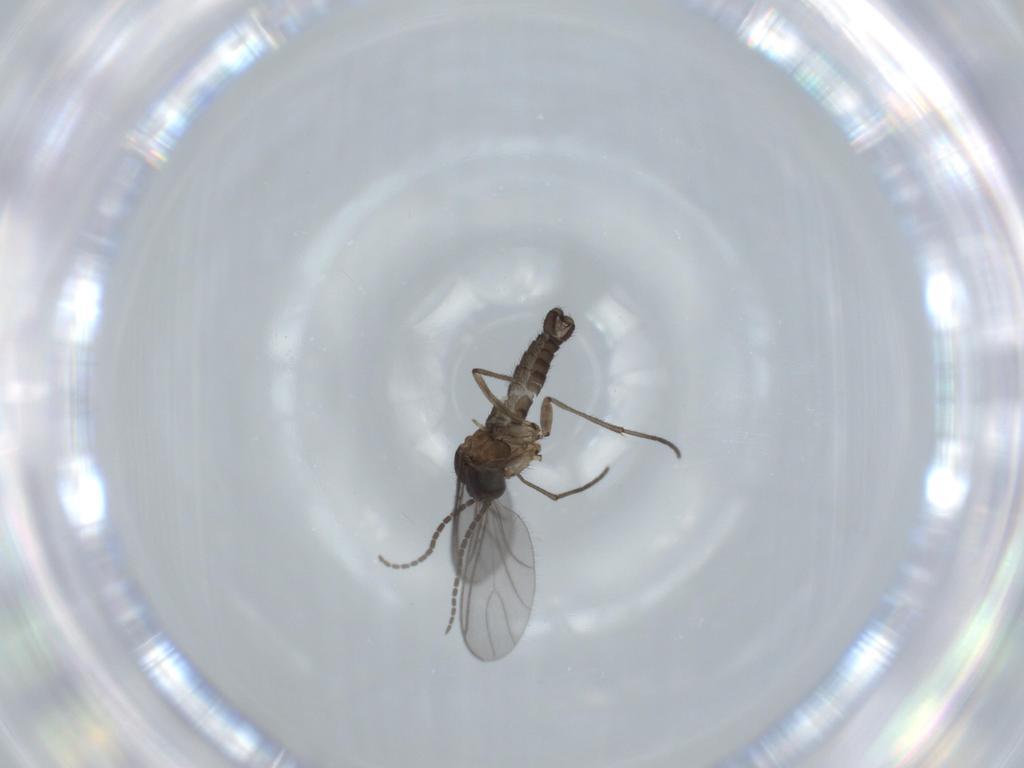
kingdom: Animalia
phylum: Arthropoda
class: Insecta
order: Diptera
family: Sciaridae
